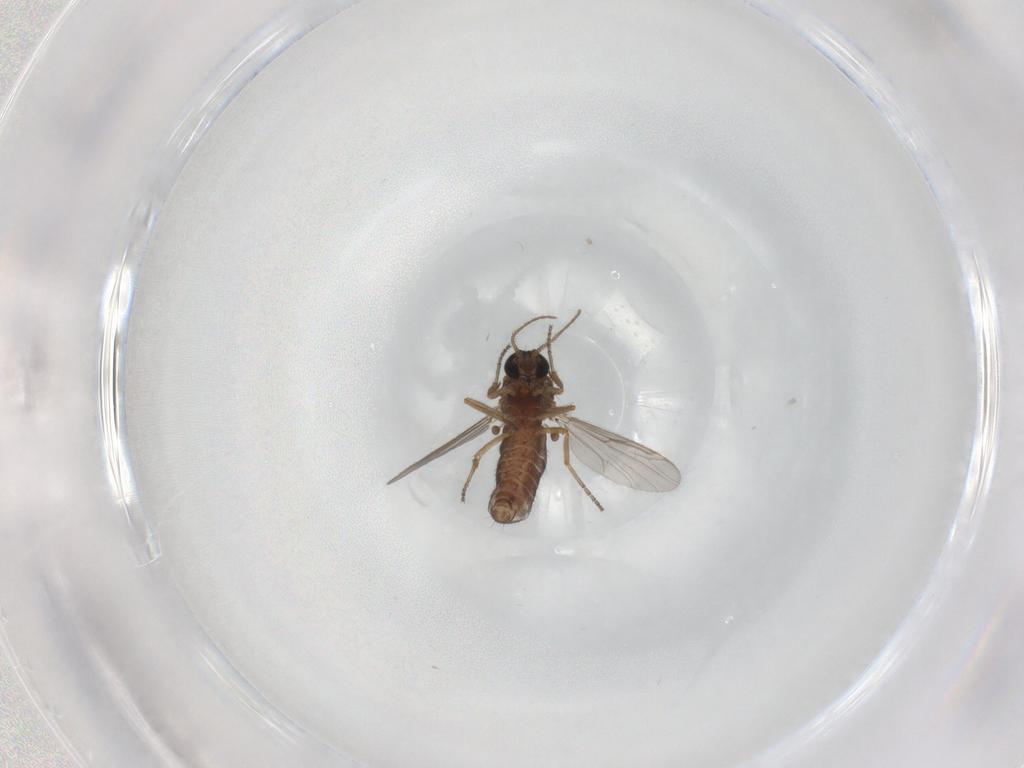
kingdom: Animalia
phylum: Arthropoda
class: Insecta
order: Diptera
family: Ceratopogonidae
